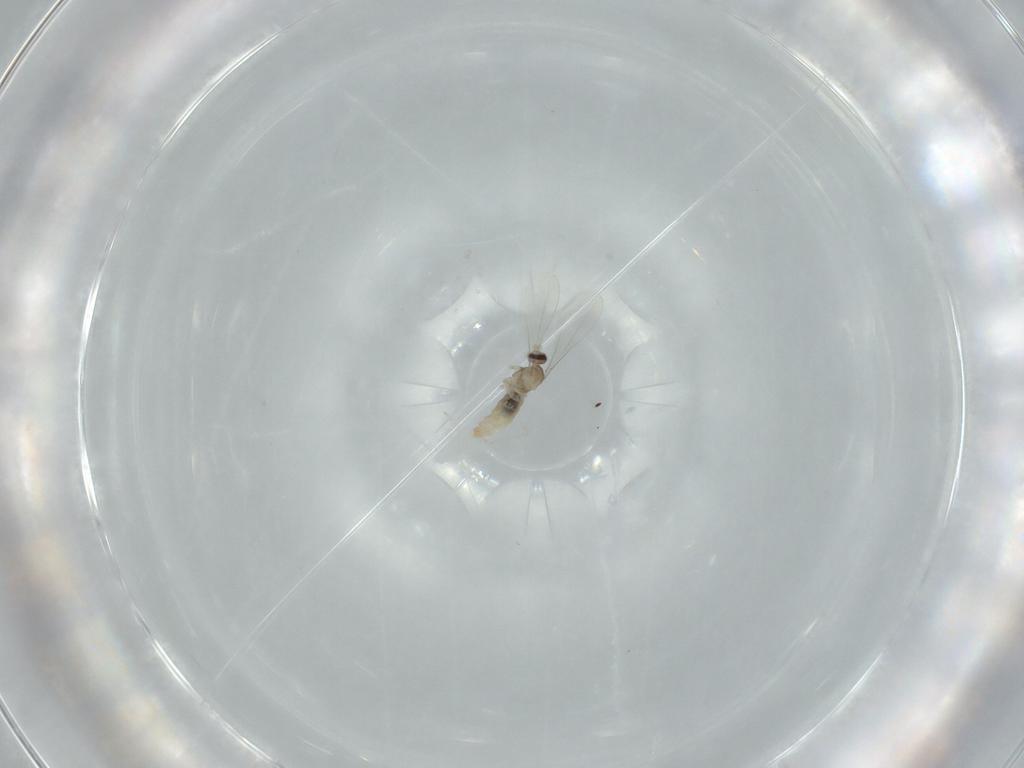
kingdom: Animalia
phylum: Arthropoda
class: Insecta
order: Diptera
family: Cecidomyiidae
